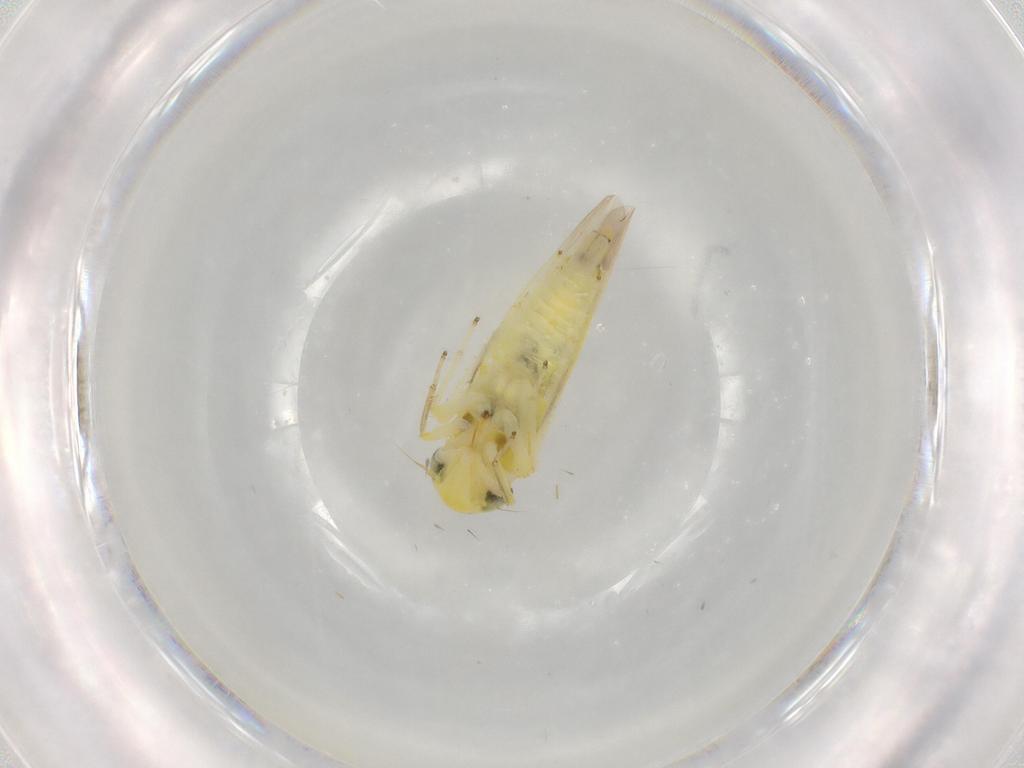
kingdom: Animalia
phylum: Arthropoda
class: Insecta
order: Hemiptera
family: Cicadellidae
